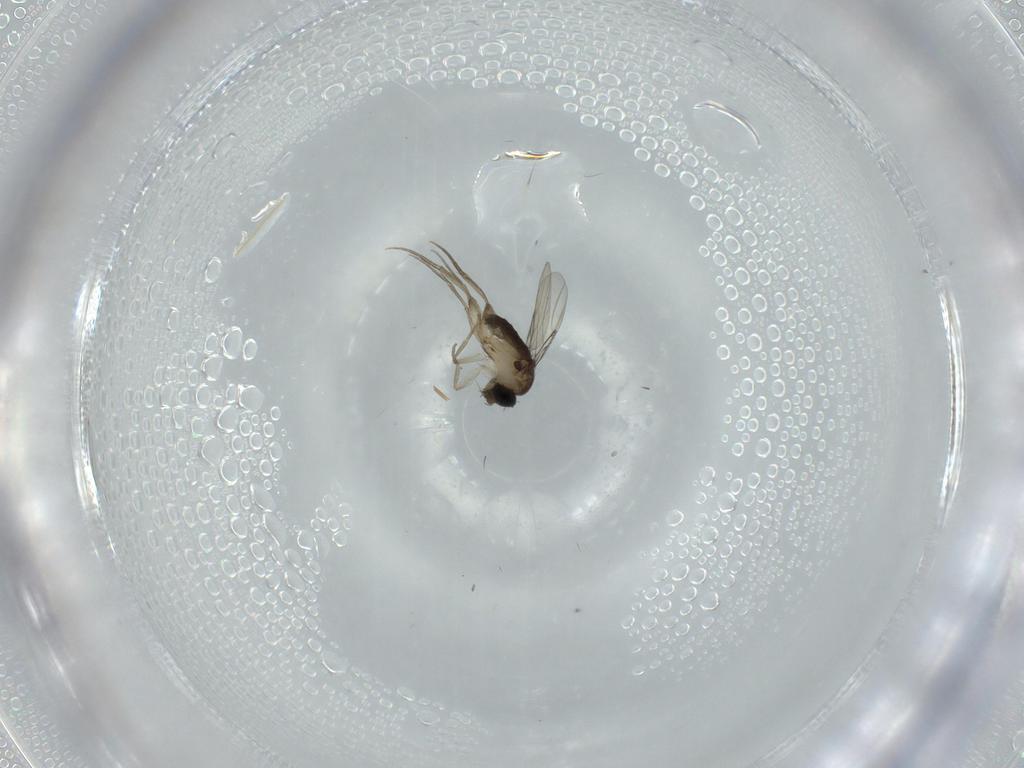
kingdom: Animalia
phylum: Arthropoda
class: Insecta
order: Diptera
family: Phoridae
